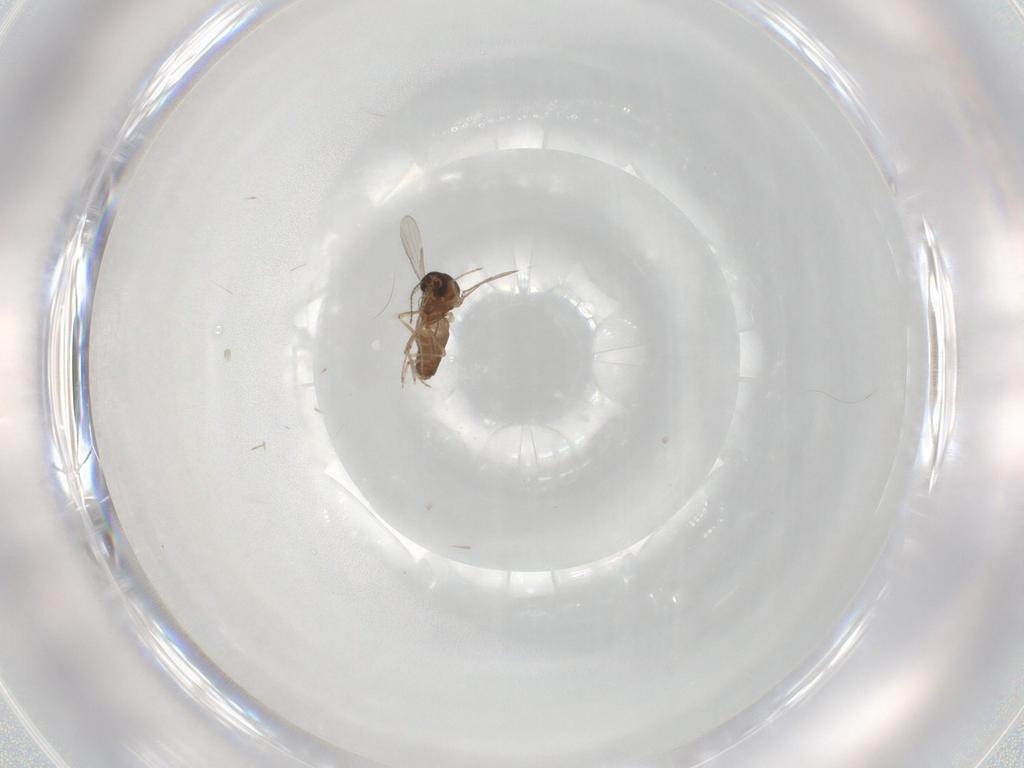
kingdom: Animalia
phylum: Arthropoda
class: Insecta
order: Diptera
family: Ceratopogonidae
